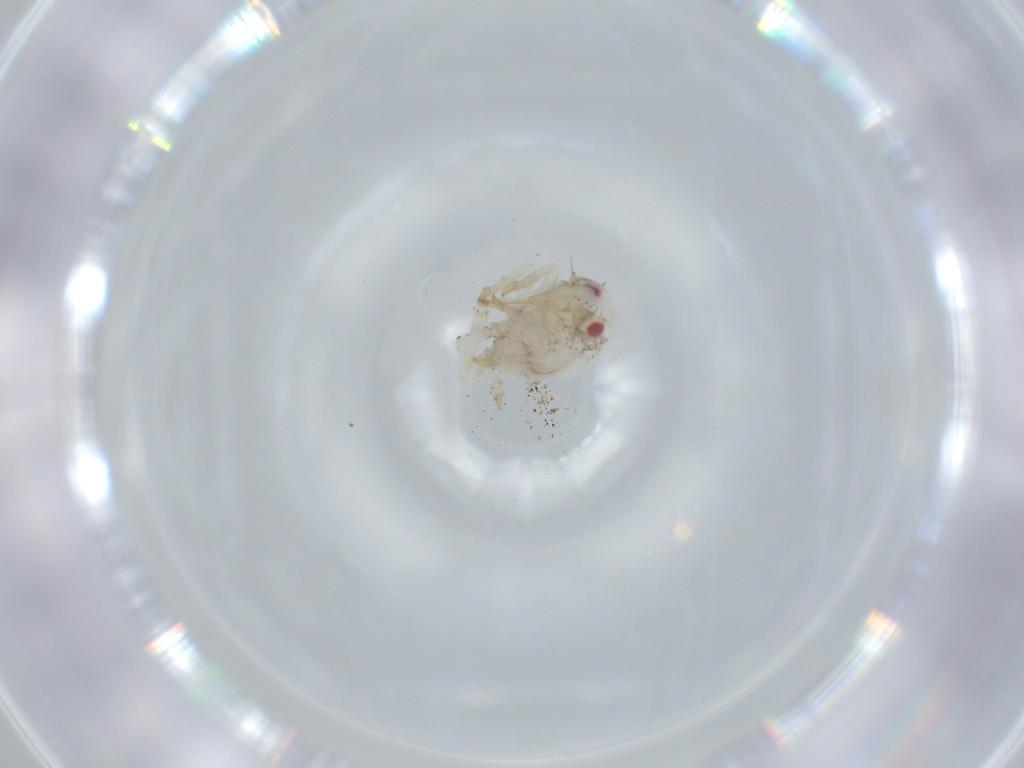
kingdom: Animalia
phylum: Arthropoda
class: Insecta
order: Hemiptera
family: Acanaloniidae
